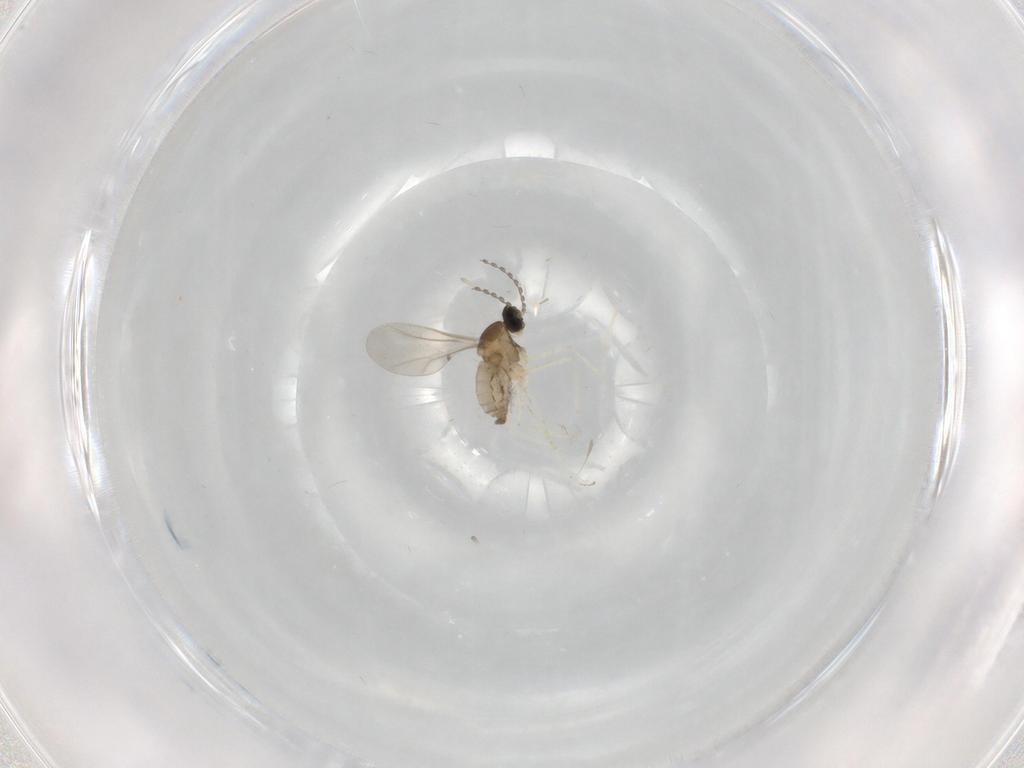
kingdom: Animalia
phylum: Arthropoda
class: Insecta
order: Diptera
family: Cecidomyiidae
